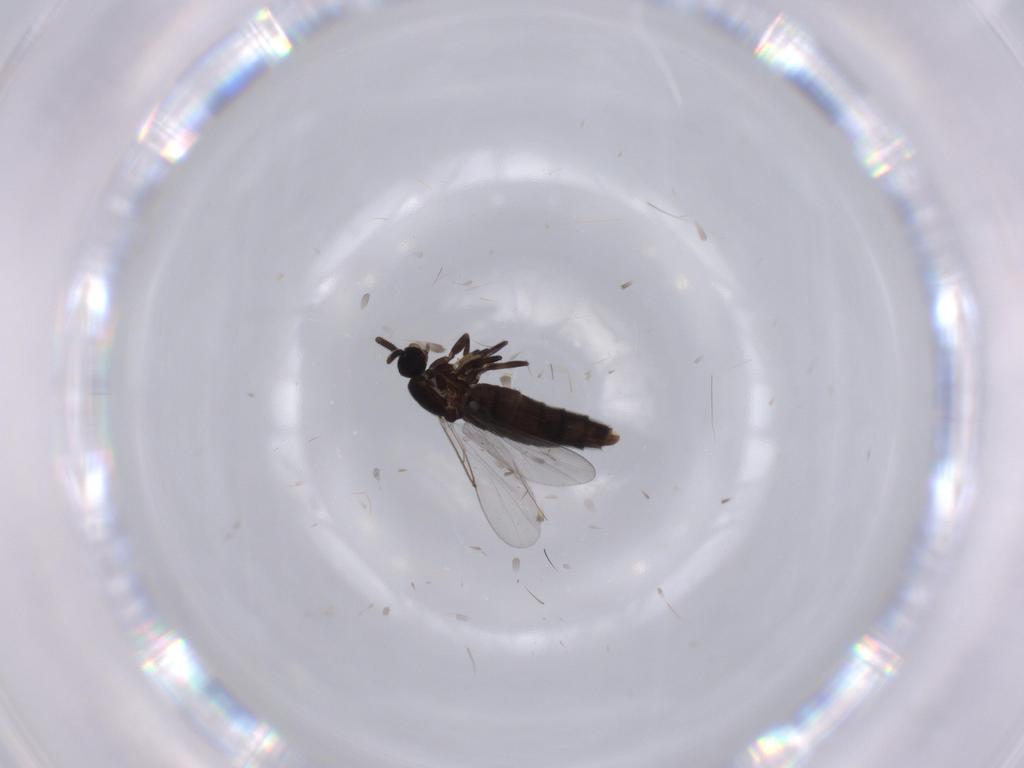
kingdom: Animalia
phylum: Arthropoda
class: Insecta
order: Diptera
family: Scatopsidae
